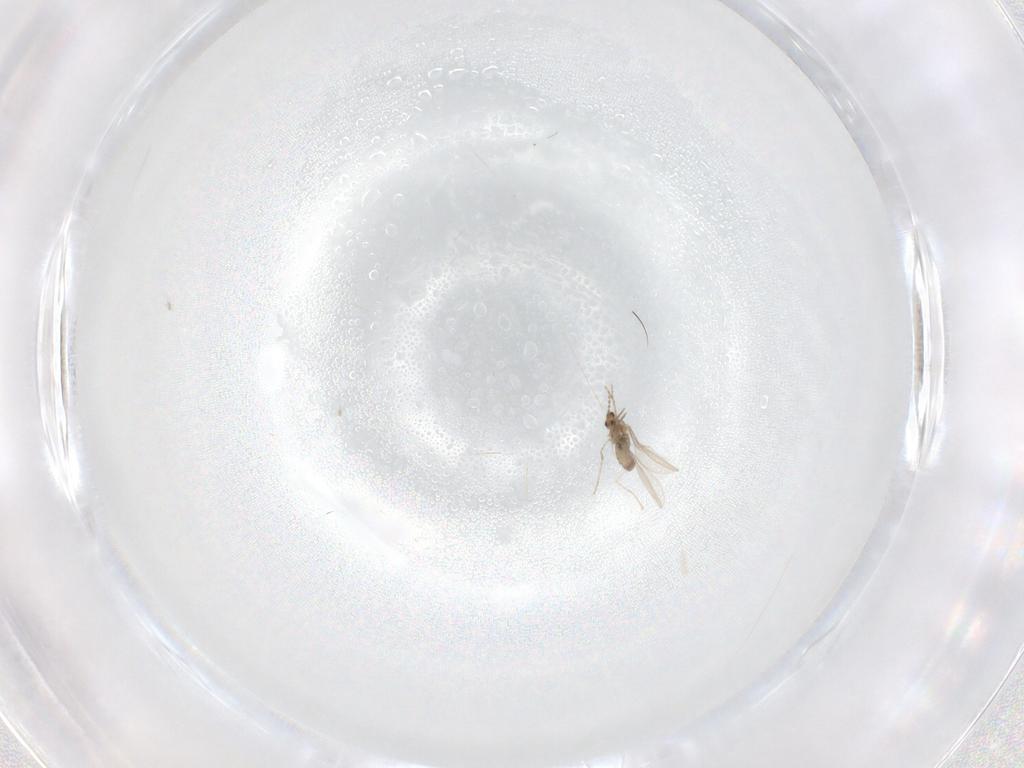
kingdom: Animalia
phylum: Arthropoda
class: Insecta
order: Diptera
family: Cecidomyiidae
